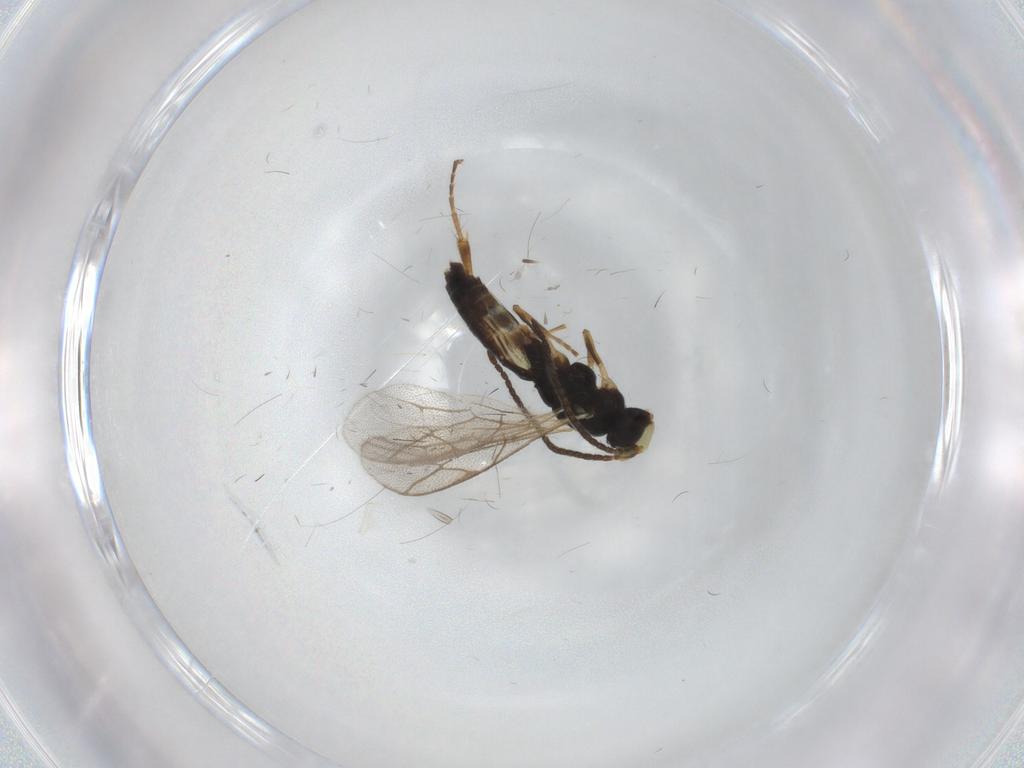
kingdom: Animalia
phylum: Arthropoda
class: Insecta
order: Hymenoptera
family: Ichneumonidae
